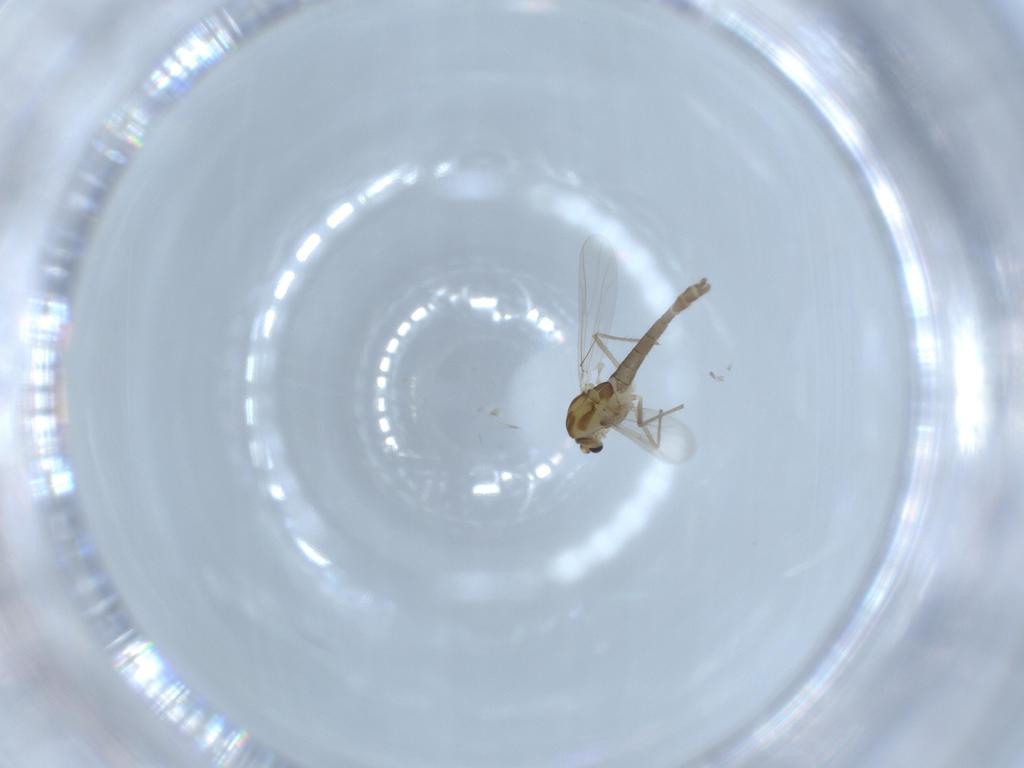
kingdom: Animalia
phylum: Arthropoda
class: Insecta
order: Diptera
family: Chironomidae
